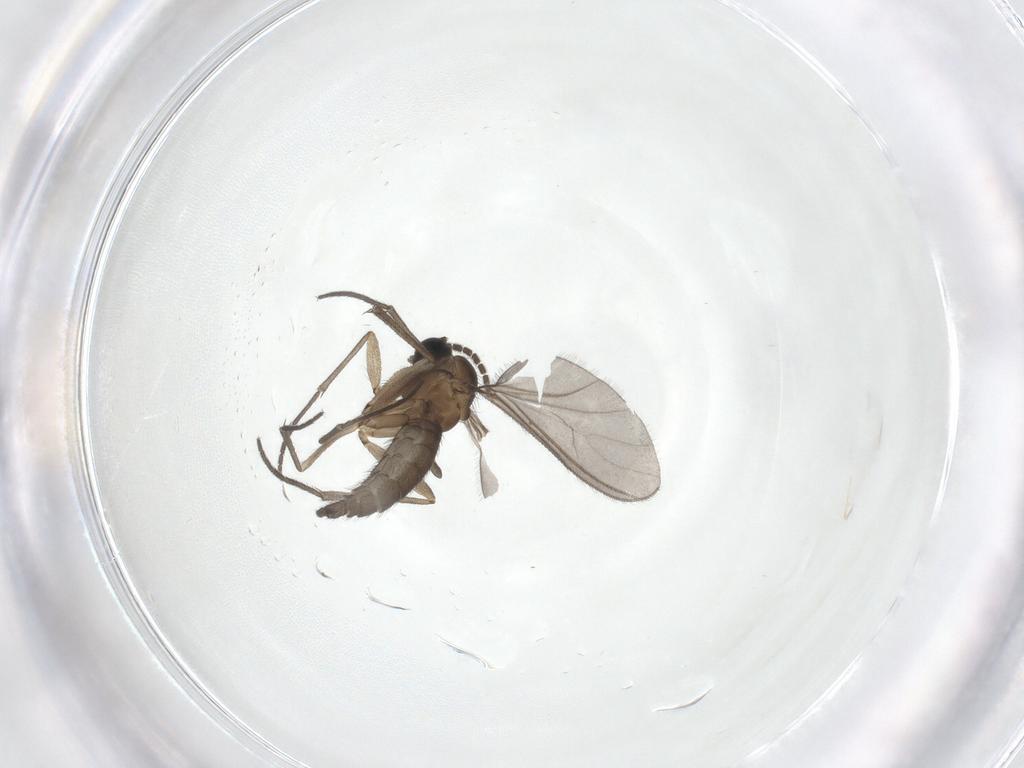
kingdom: Animalia
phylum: Arthropoda
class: Insecta
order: Diptera
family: Sciaridae
